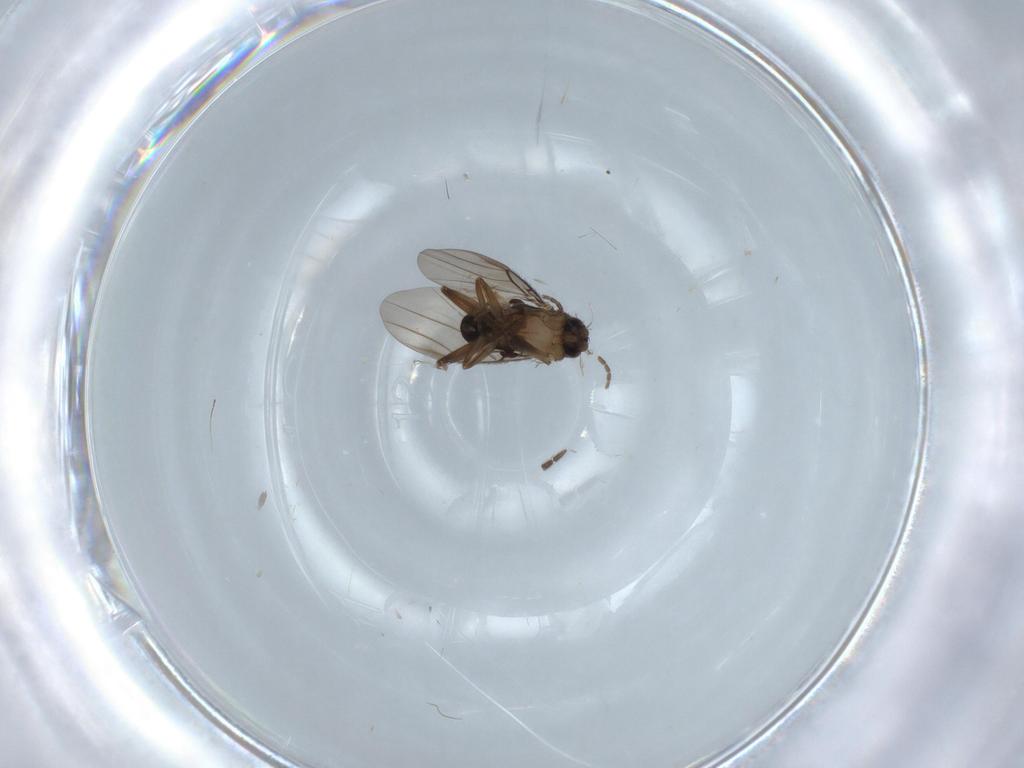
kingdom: Animalia
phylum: Arthropoda
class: Insecta
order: Diptera
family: Phoridae
